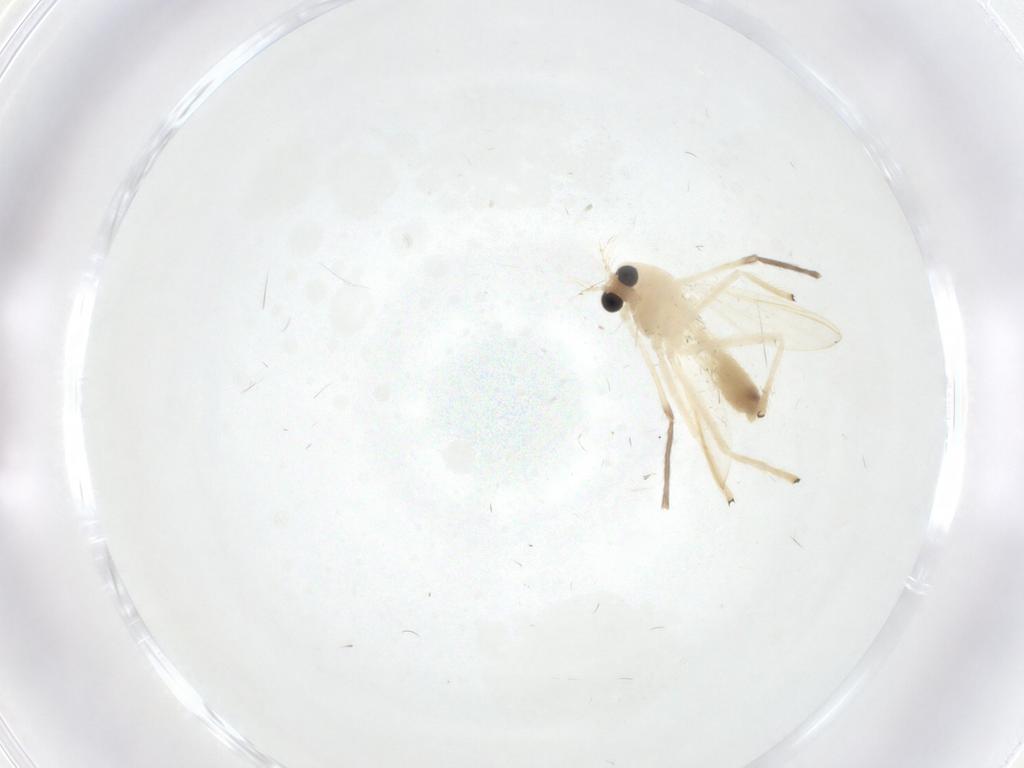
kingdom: Animalia
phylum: Arthropoda
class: Insecta
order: Diptera
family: Chironomidae
